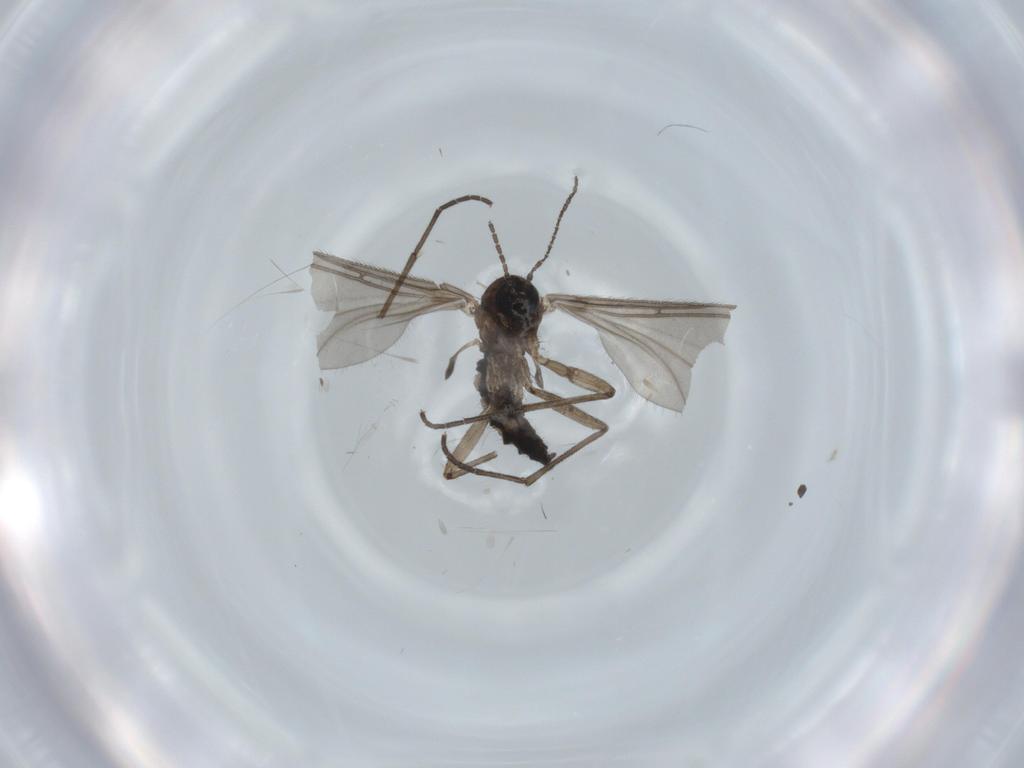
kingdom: Animalia
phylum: Arthropoda
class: Insecta
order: Diptera
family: Sciaridae
